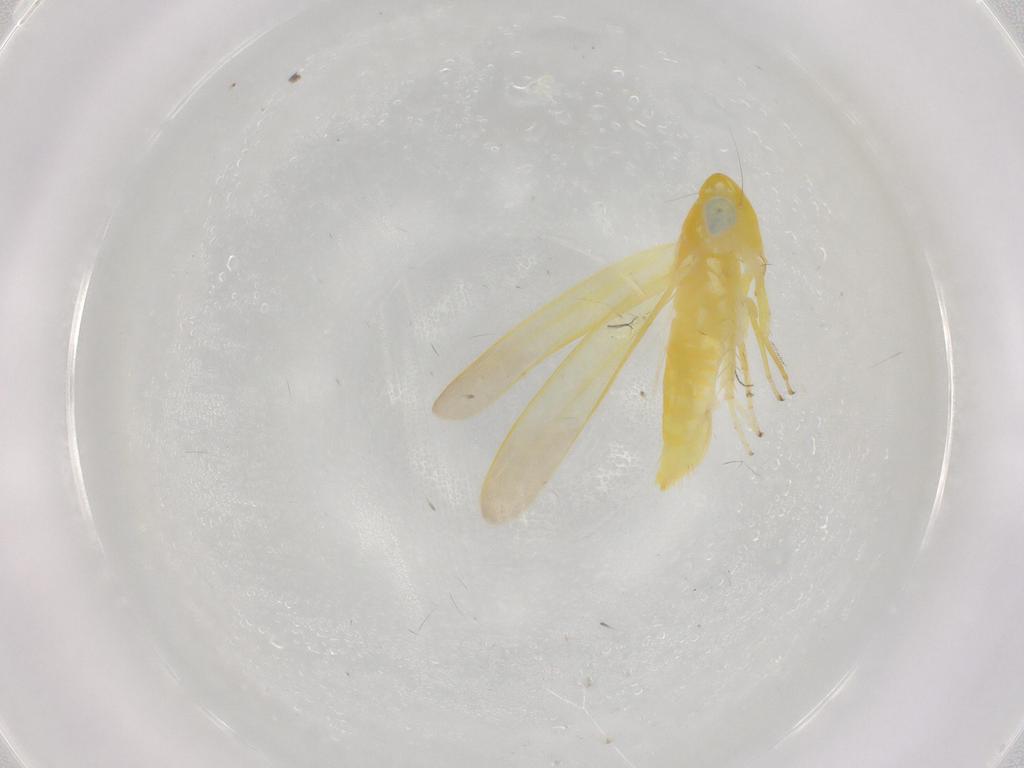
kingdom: Animalia
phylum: Arthropoda
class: Insecta
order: Hemiptera
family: Cicadellidae
